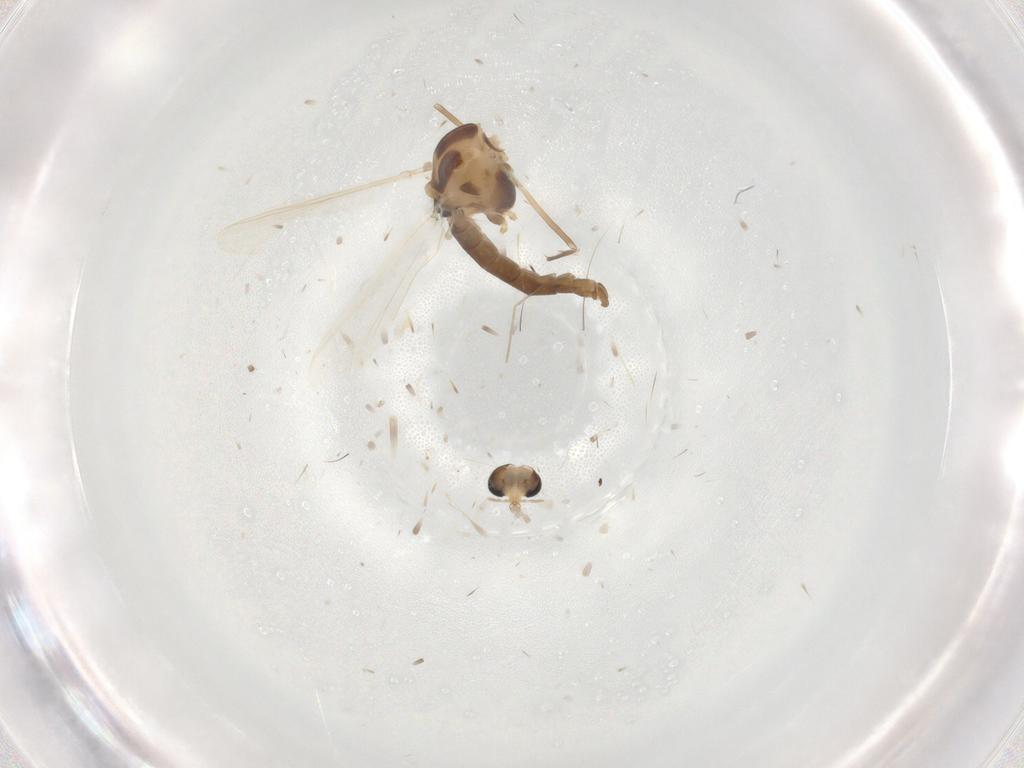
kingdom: Animalia
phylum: Arthropoda
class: Insecta
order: Diptera
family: Chironomidae
